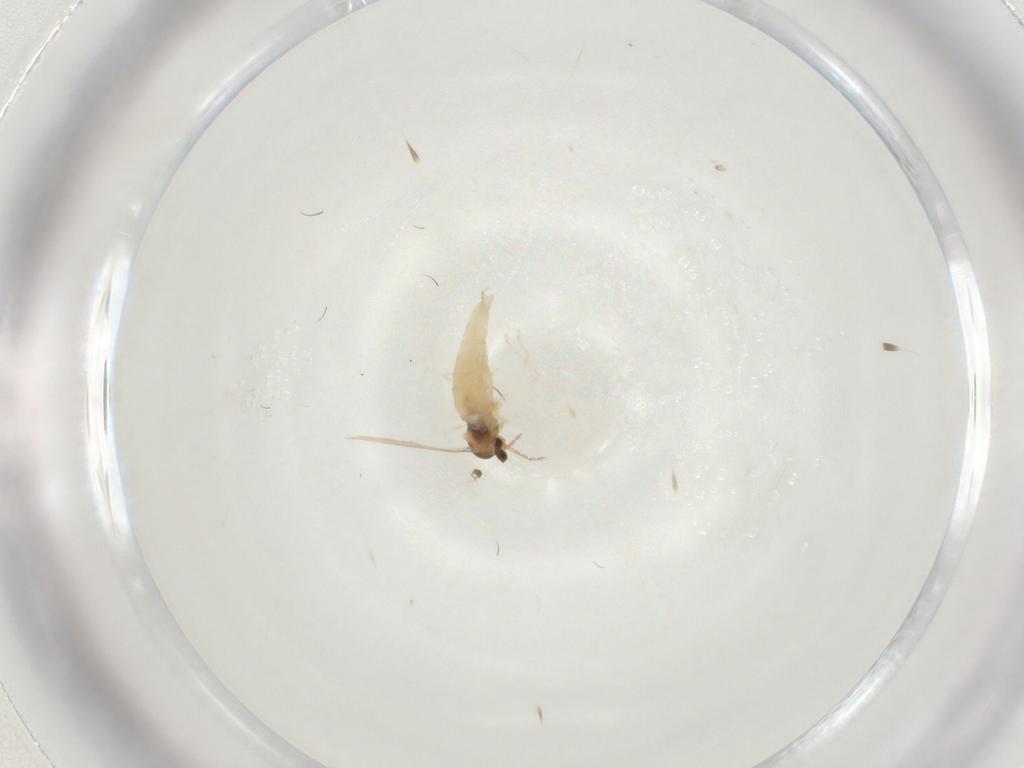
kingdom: Animalia
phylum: Arthropoda
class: Insecta
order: Diptera
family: Cecidomyiidae
